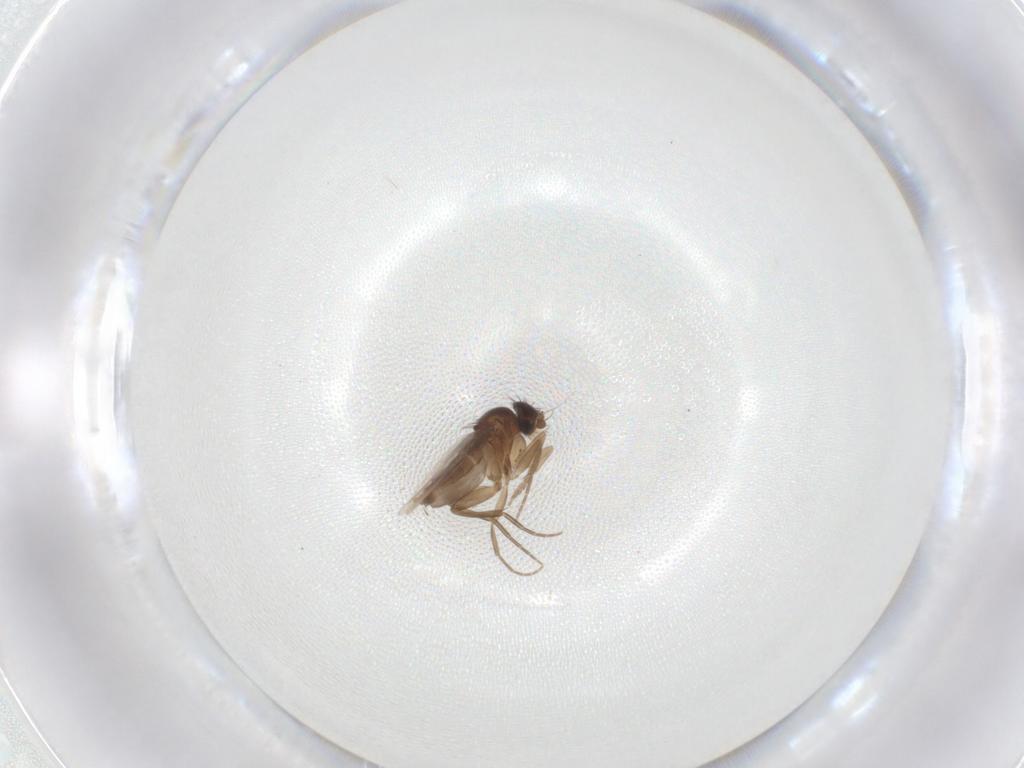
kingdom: Animalia
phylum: Arthropoda
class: Insecta
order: Diptera
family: Phoridae
